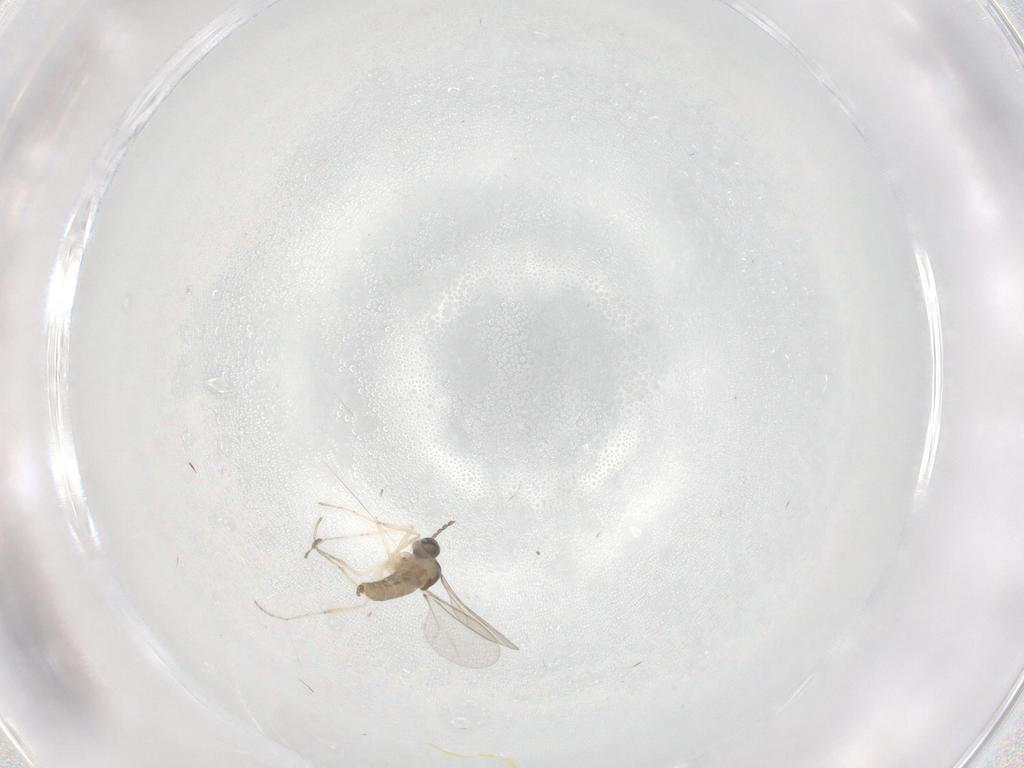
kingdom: Animalia
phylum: Arthropoda
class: Insecta
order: Diptera
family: Cecidomyiidae
